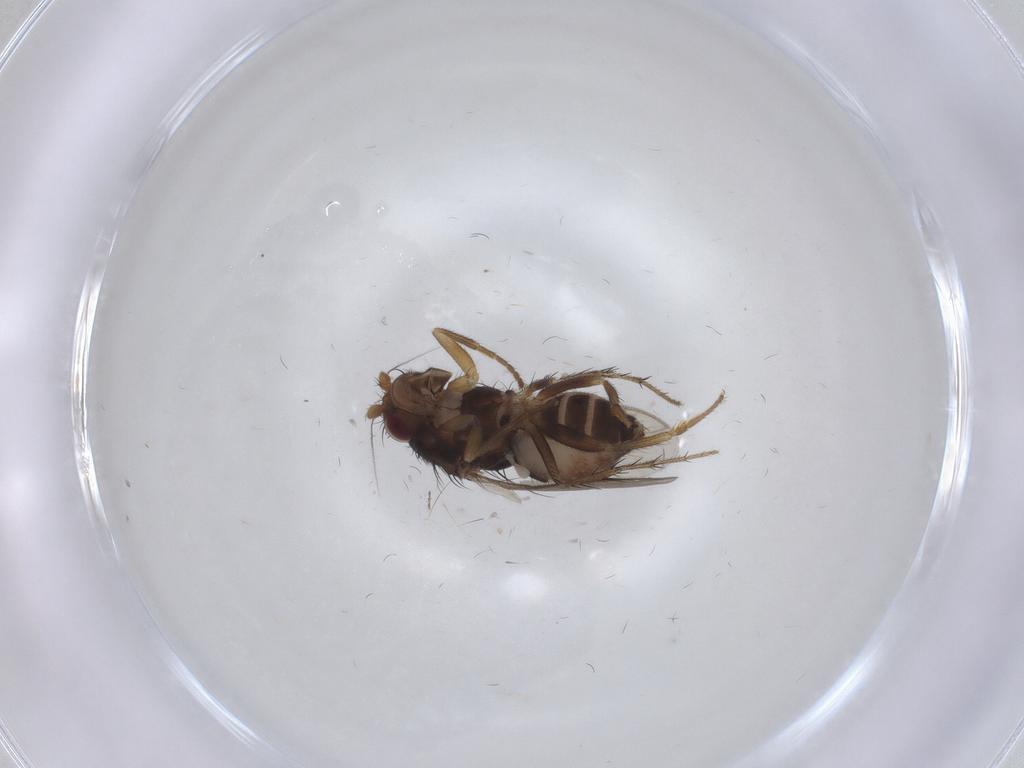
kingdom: Animalia
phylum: Arthropoda
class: Insecta
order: Diptera
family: Sphaeroceridae
